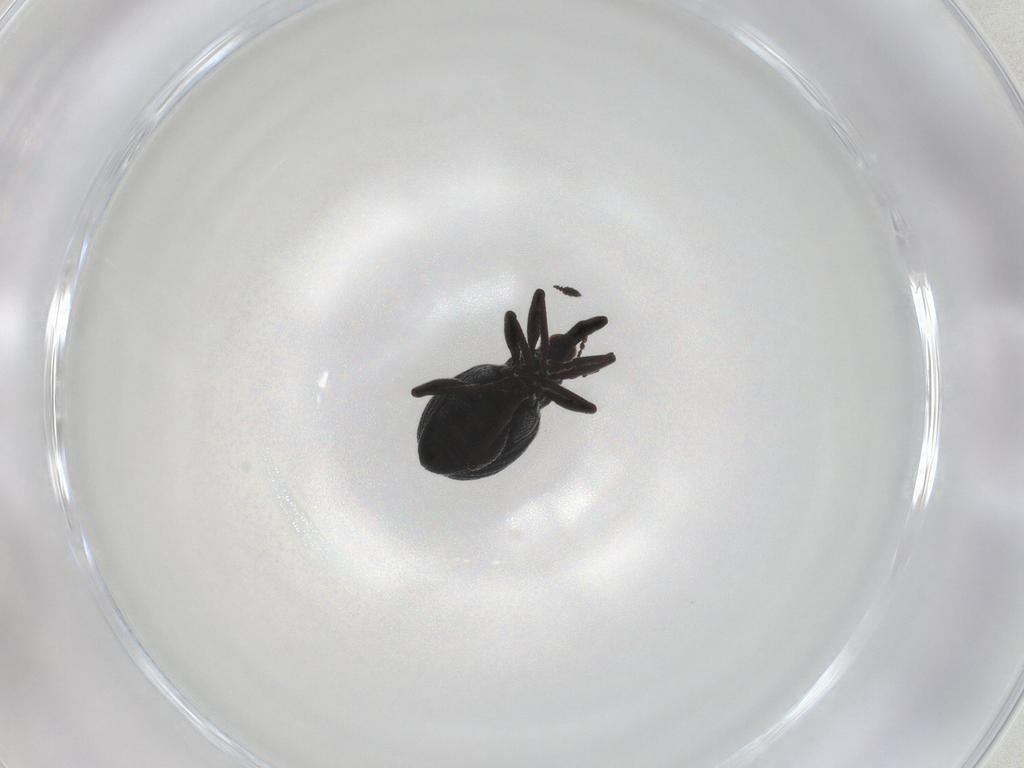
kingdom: Animalia
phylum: Arthropoda
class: Insecta
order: Coleoptera
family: Brentidae
